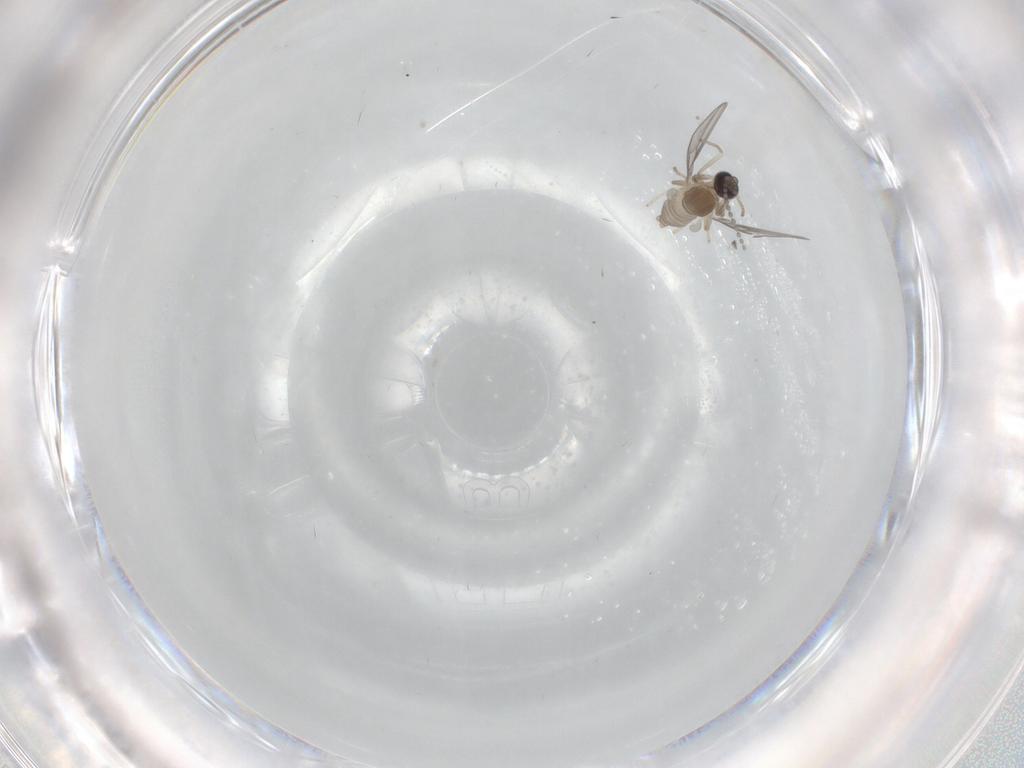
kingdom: Animalia
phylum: Arthropoda
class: Insecta
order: Diptera
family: Cecidomyiidae
